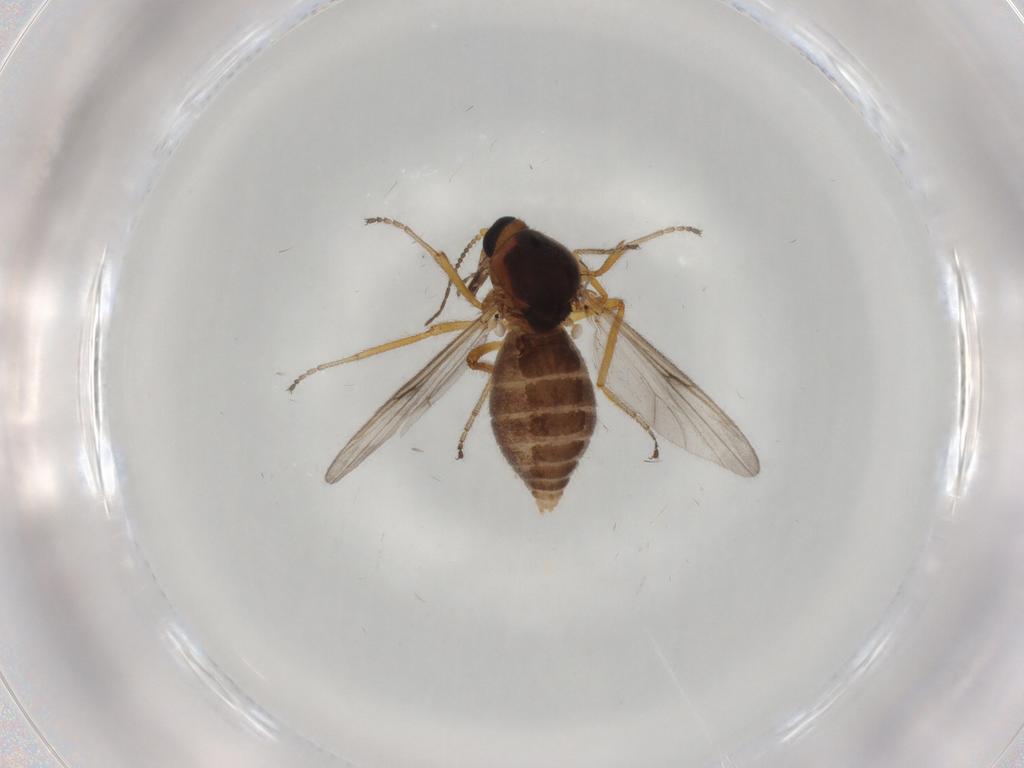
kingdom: Animalia
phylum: Arthropoda
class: Insecta
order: Diptera
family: Ceratopogonidae
